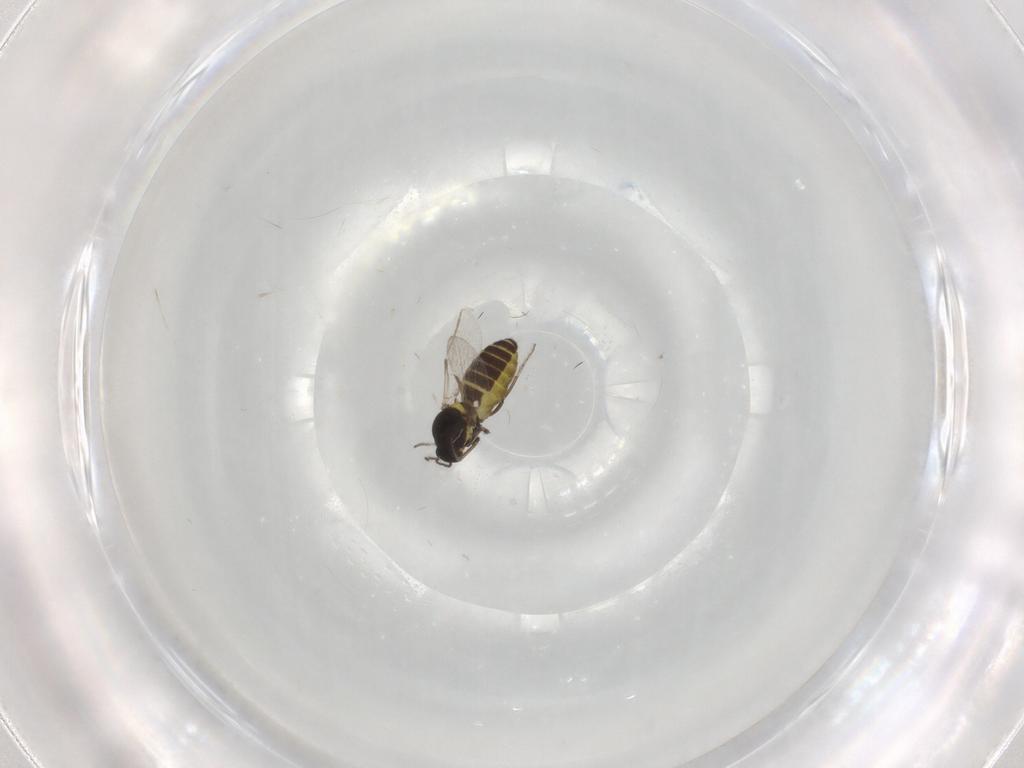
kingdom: Animalia
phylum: Arthropoda
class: Insecta
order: Diptera
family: Ceratopogonidae
